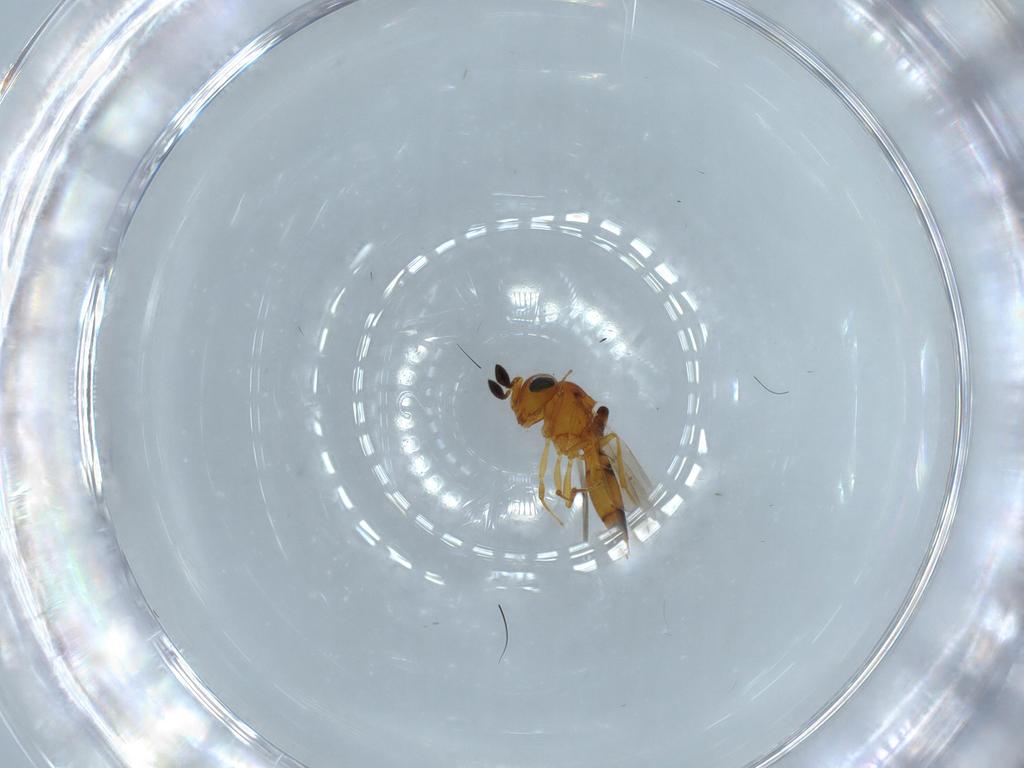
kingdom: Animalia
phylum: Arthropoda
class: Insecta
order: Hymenoptera
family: Scelionidae
